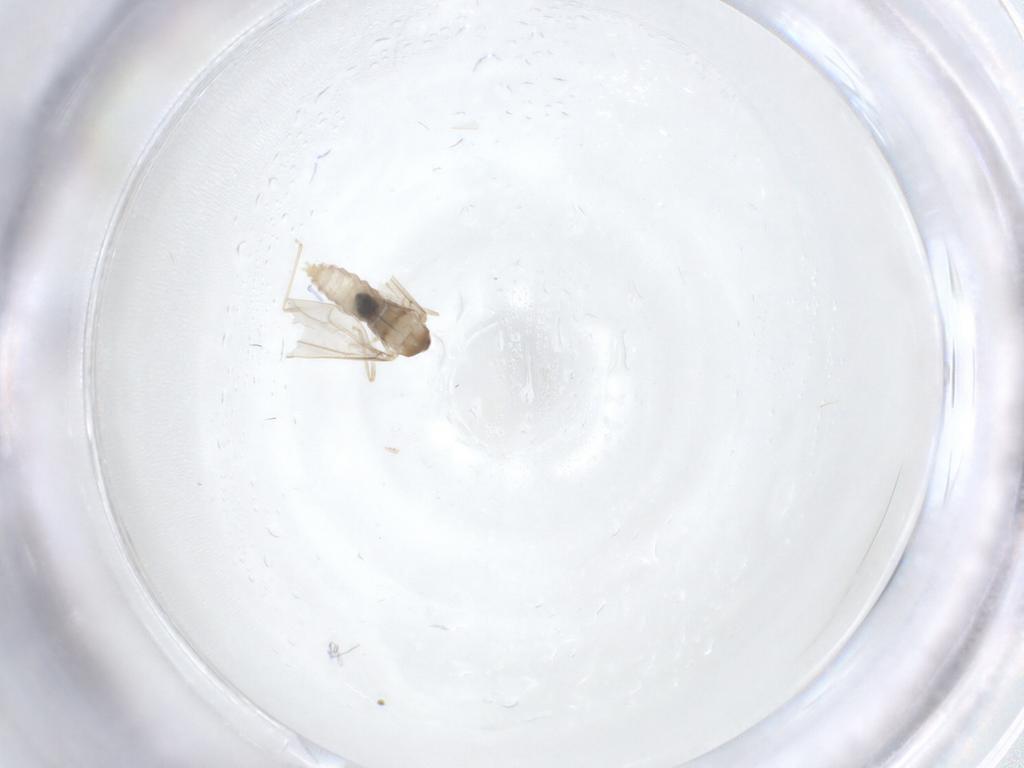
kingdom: Animalia
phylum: Arthropoda
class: Insecta
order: Diptera
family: Cecidomyiidae
